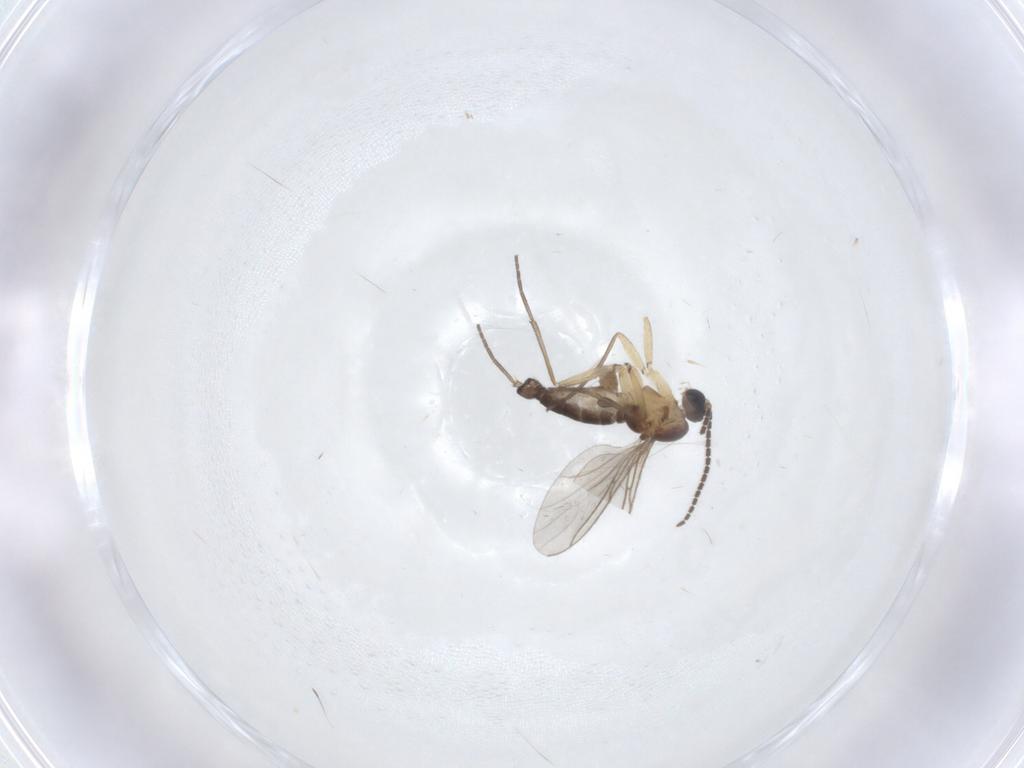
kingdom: Animalia
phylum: Arthropoda
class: Insecta
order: Diptera
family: Sciaridae
